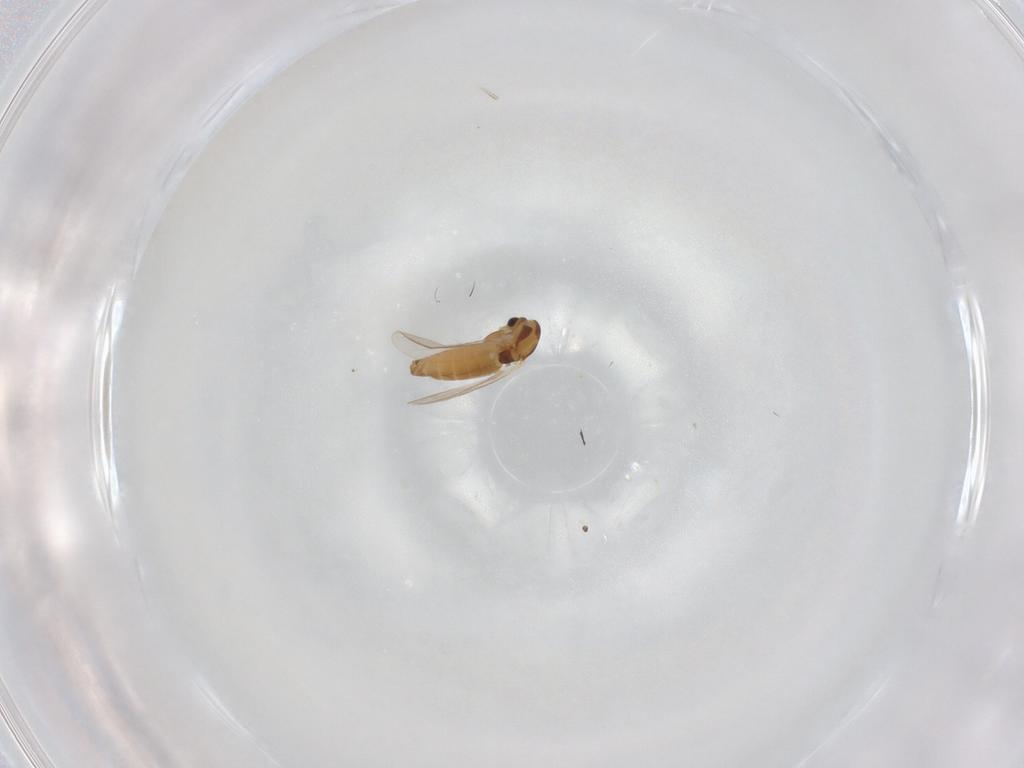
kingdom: Animalia
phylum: Arthropoda
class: Insecta
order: Diptera
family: Chironomidae
